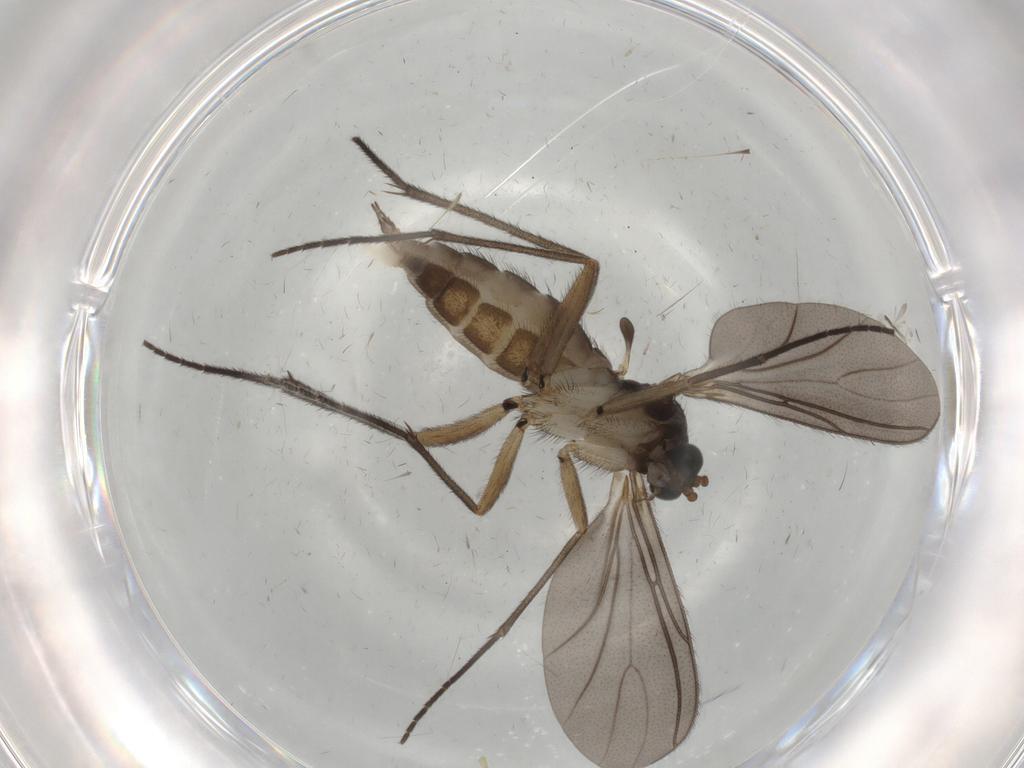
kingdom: Animalia
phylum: Arthropoda
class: Insecta
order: Diptera
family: Sciaridae
